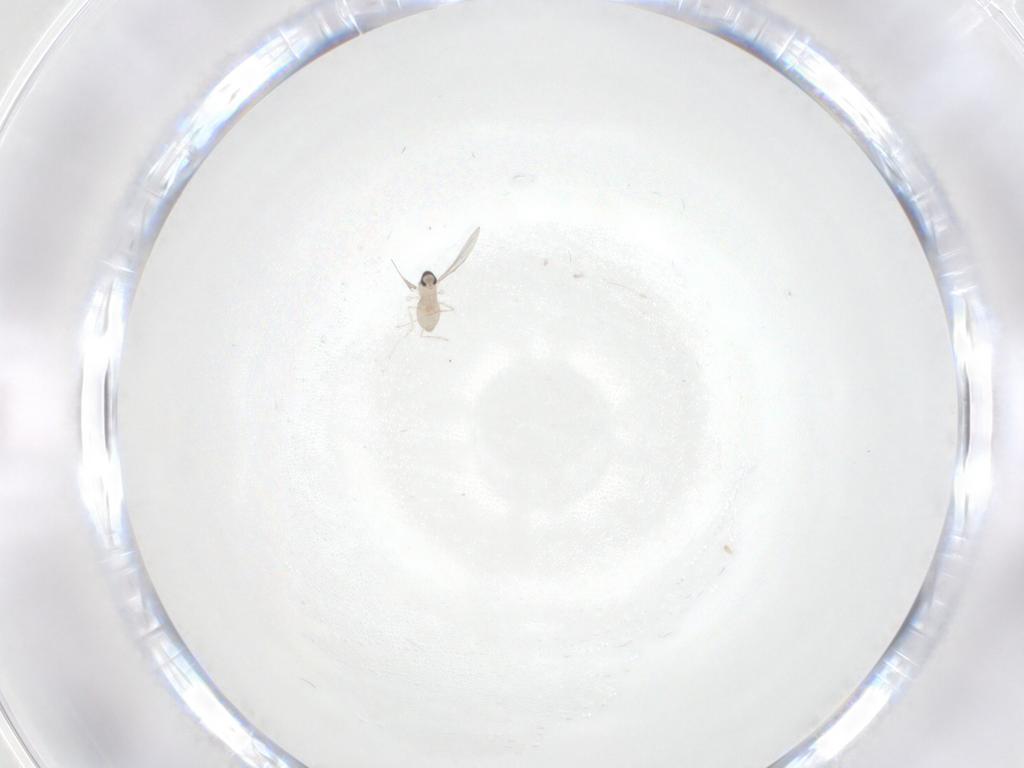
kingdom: Animalia
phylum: Arthropoda
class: Insecta
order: Diptera
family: Cecidomyiidae
